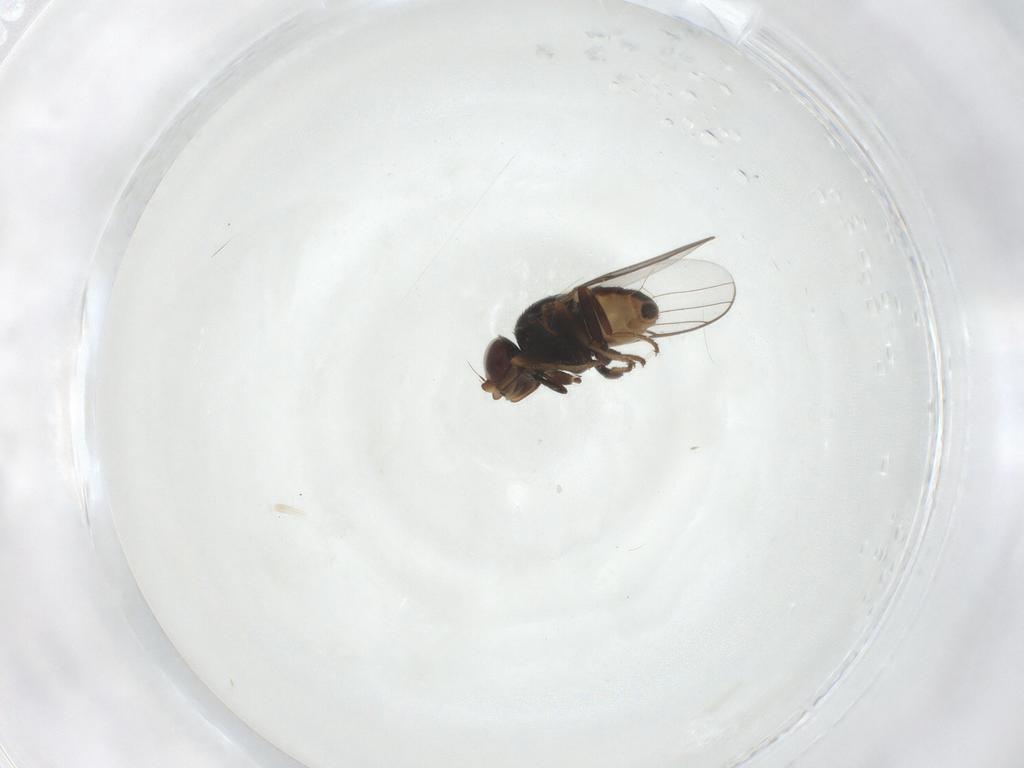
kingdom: Animalia
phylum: Arthropoda
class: Insecta
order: Diptera
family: Chloropidae
